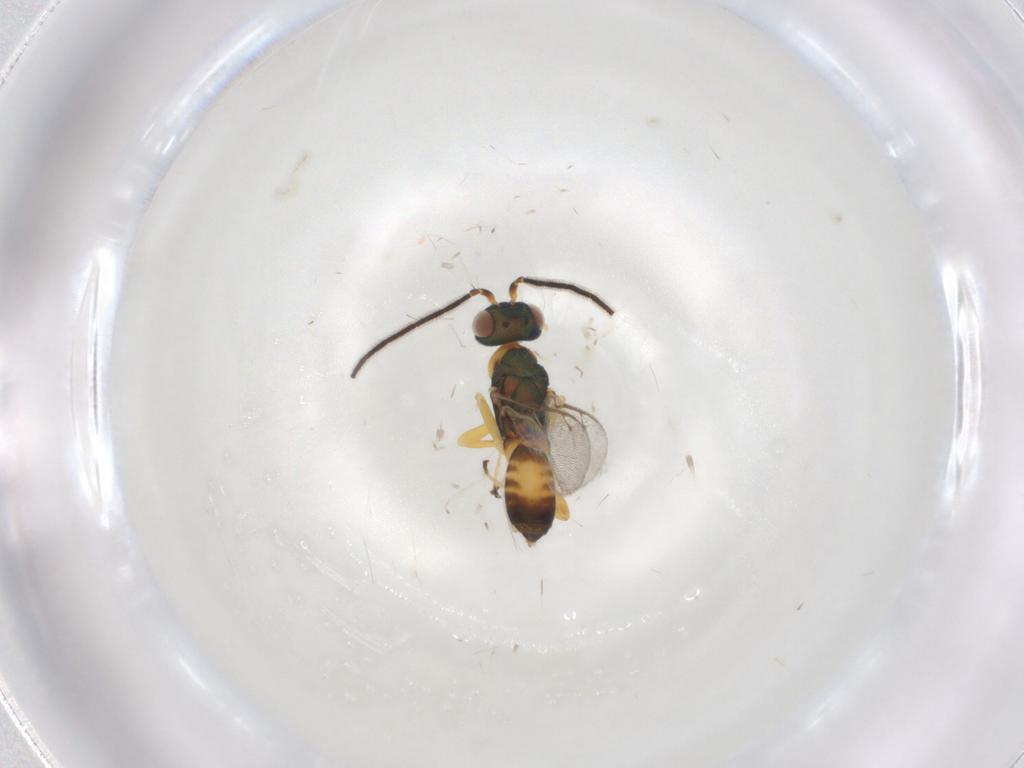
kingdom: Animalia
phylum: Arthropoda
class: Insecta
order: Hymenoptera
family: Eupelmidae
